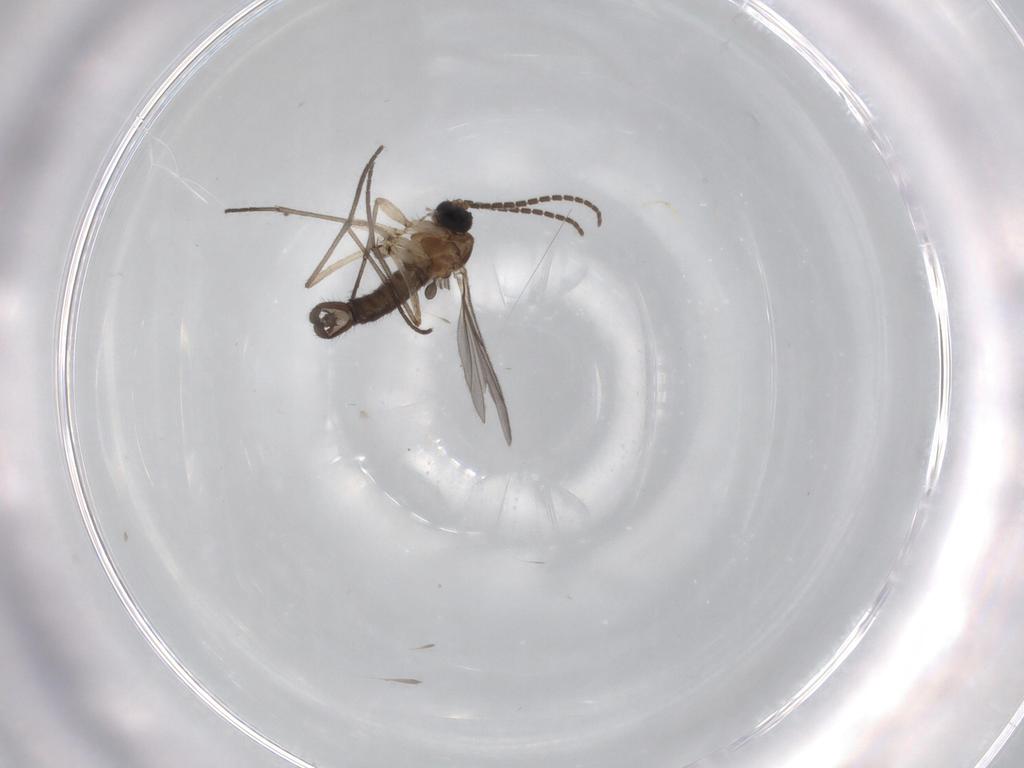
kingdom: Animalia
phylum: Arthropoda
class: Insecta
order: Diptera
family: Sciaridae
